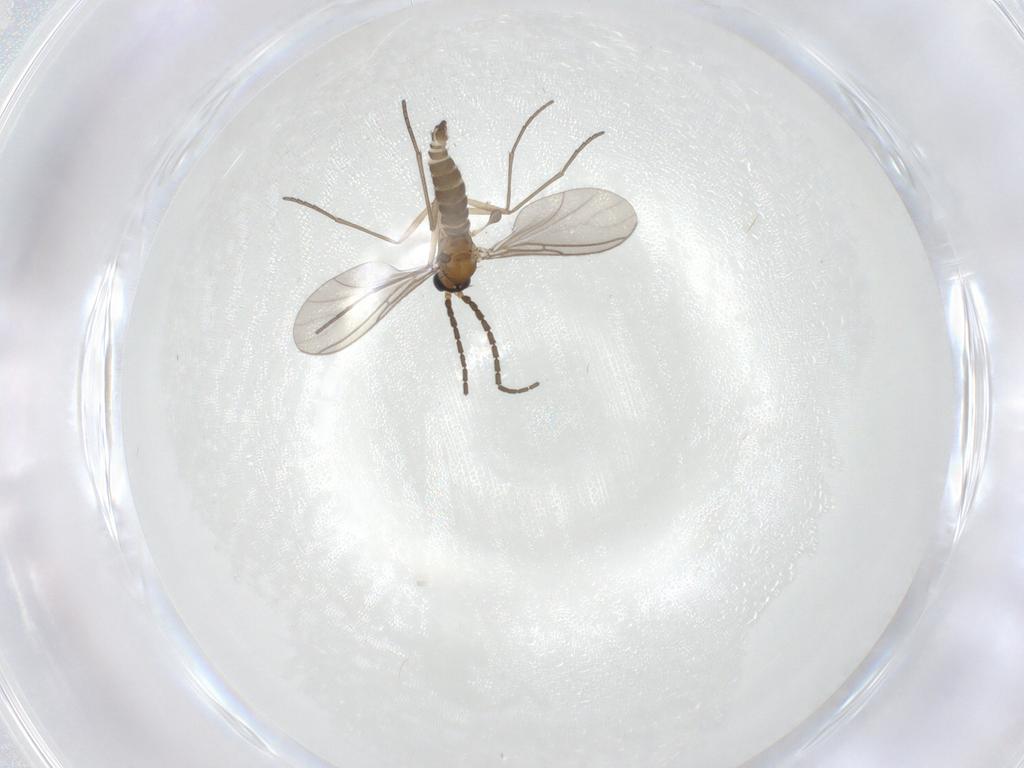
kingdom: Animalia
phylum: Arthropoda
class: Insecta
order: Diptera
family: Sciaridae
